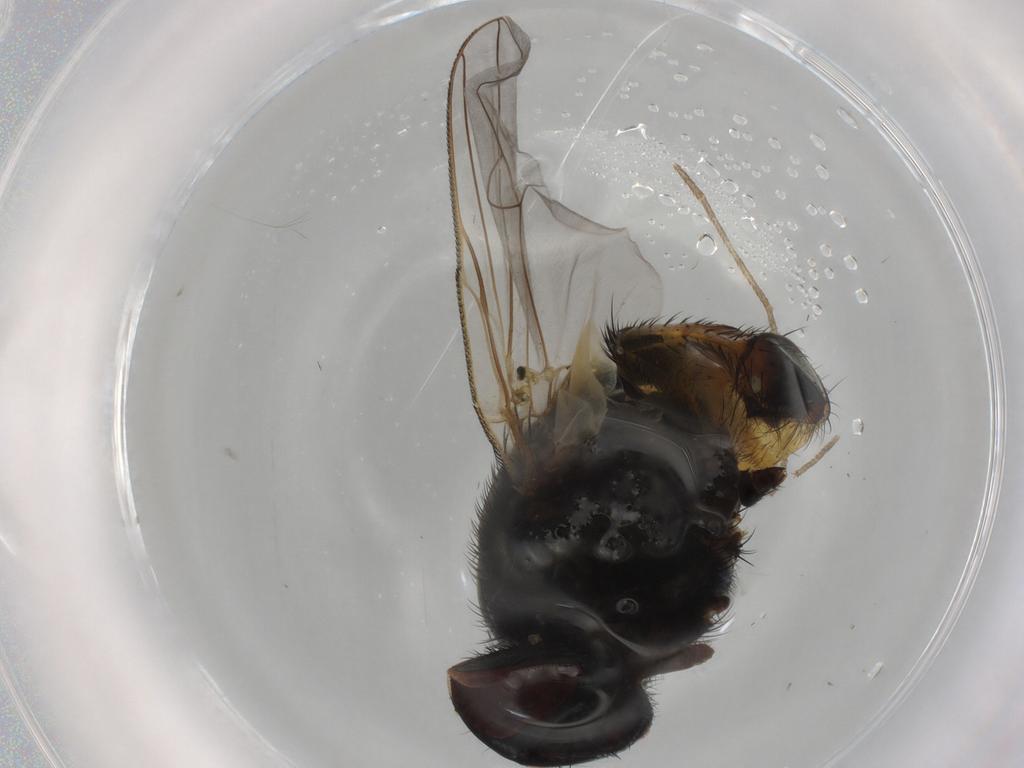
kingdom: Animalia
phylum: Arthropoda
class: Insecta
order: Diptera
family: Muscidae
